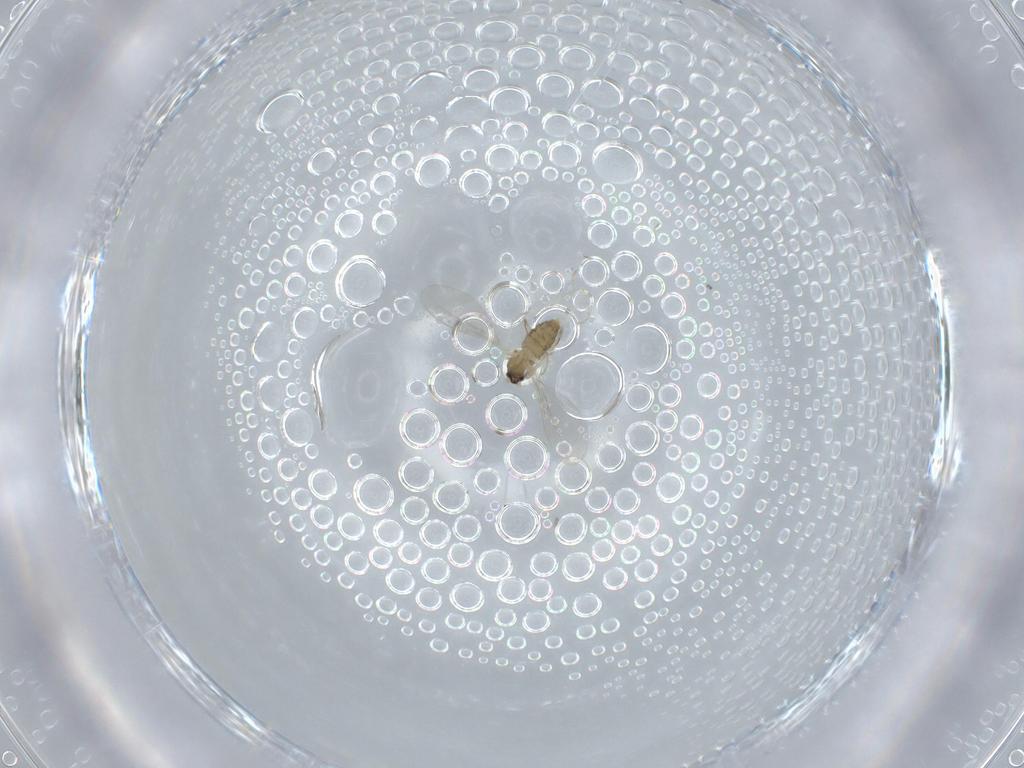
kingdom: Animalia
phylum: Arthropoda
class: Insecta
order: Diptera
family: Cecidomyiidae
